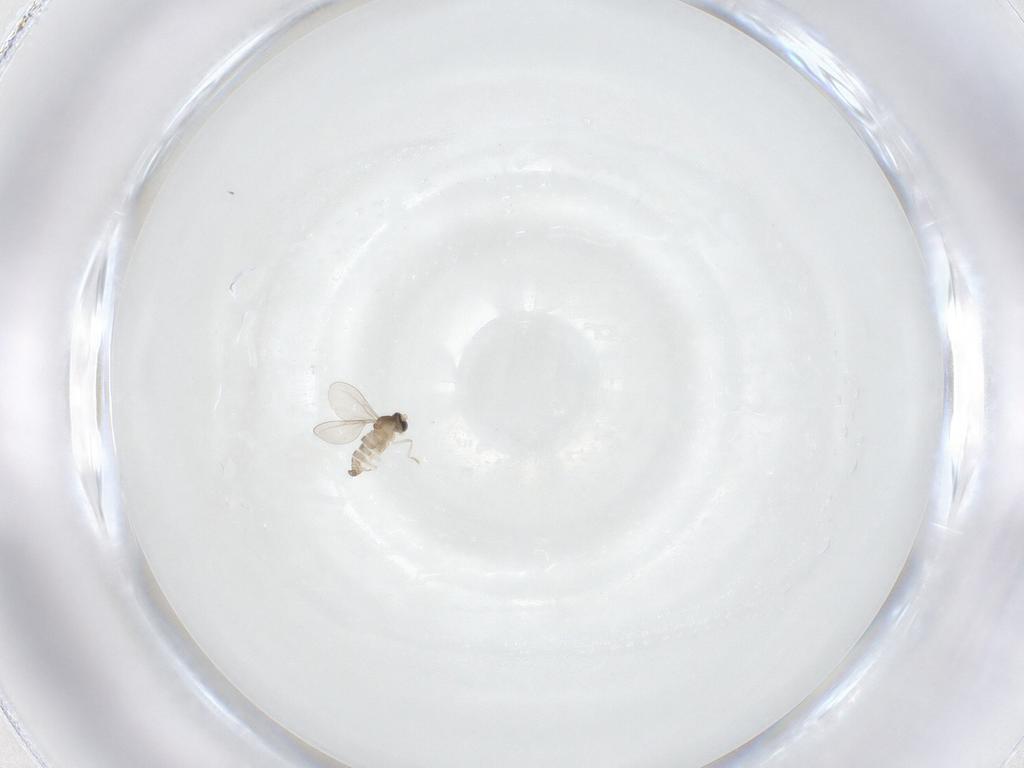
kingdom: Animalia
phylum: Arthropoda
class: Insecta
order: Diptera
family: Cecidomyiidae
